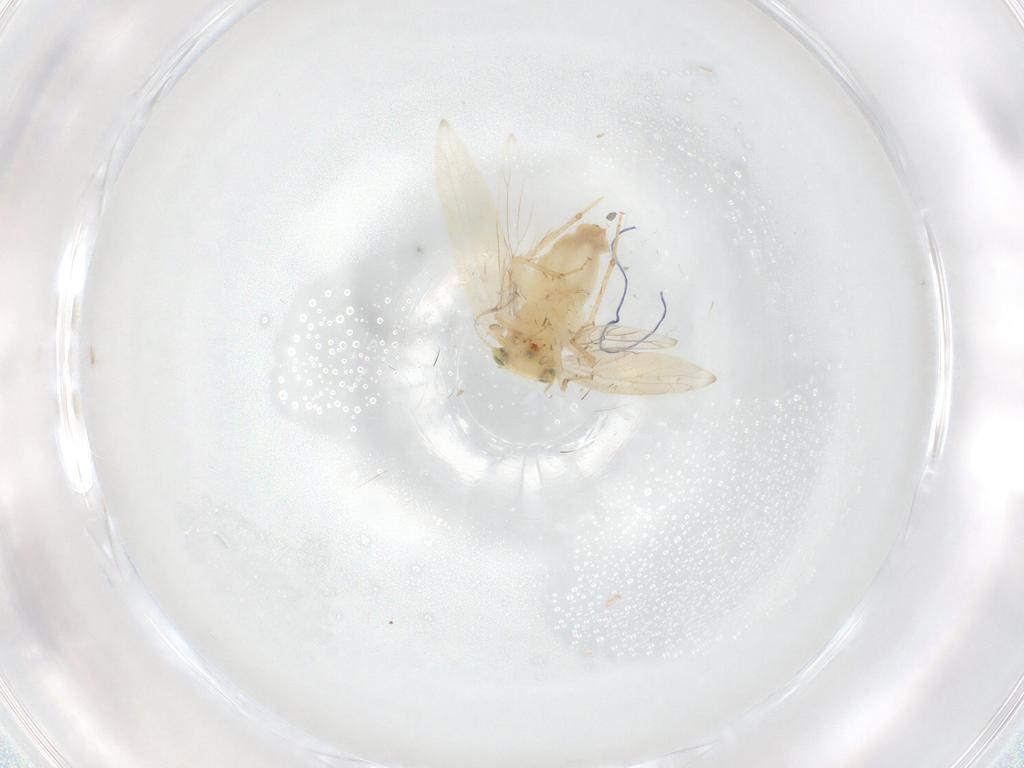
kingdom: Animalia
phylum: Arthropoda
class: Insecta
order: Psocodea
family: Lepidopsocidae
